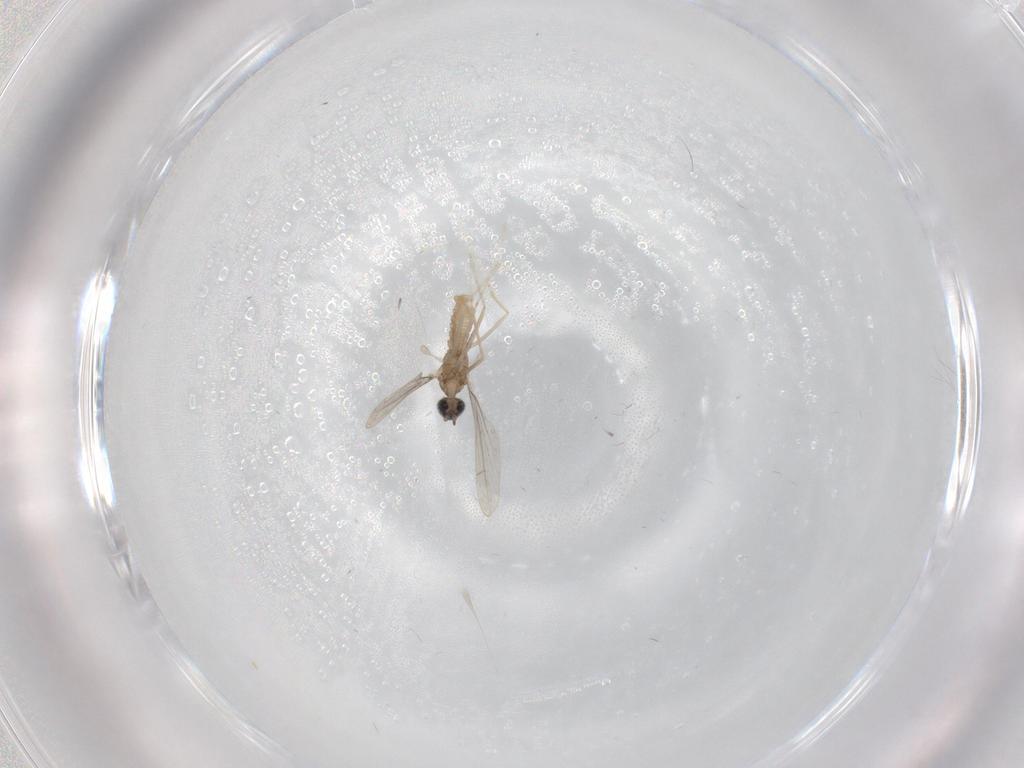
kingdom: Animalia
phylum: Arthropoda
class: Insecta
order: Diptera
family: Cecidomyiidae
